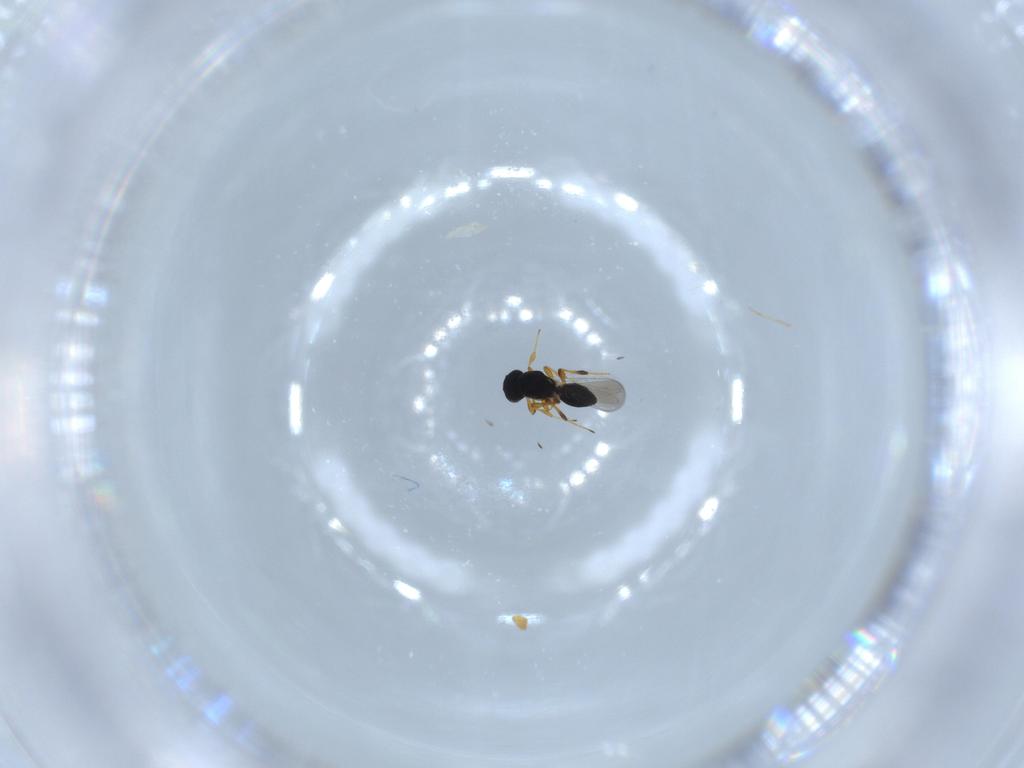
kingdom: Animalia
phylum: Arthropoda
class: Insecta
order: Hymenoptera
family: Platygastridae
